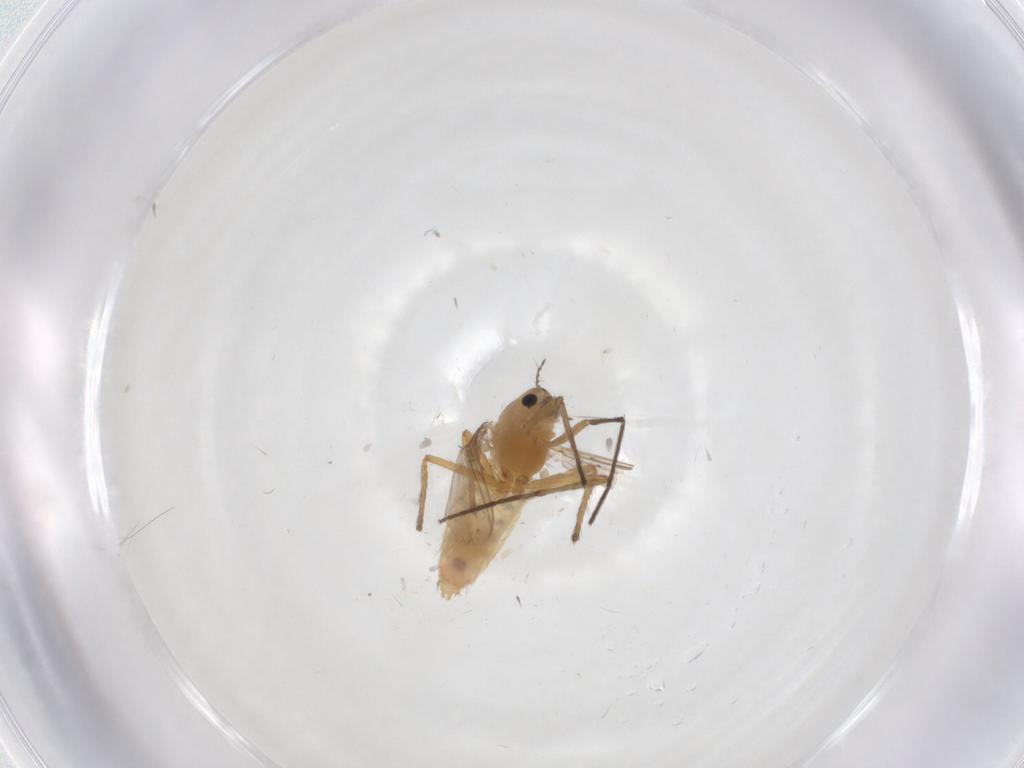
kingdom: Animalia
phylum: Arthropoda
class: Insecta
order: Diptera
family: Chironomidae
